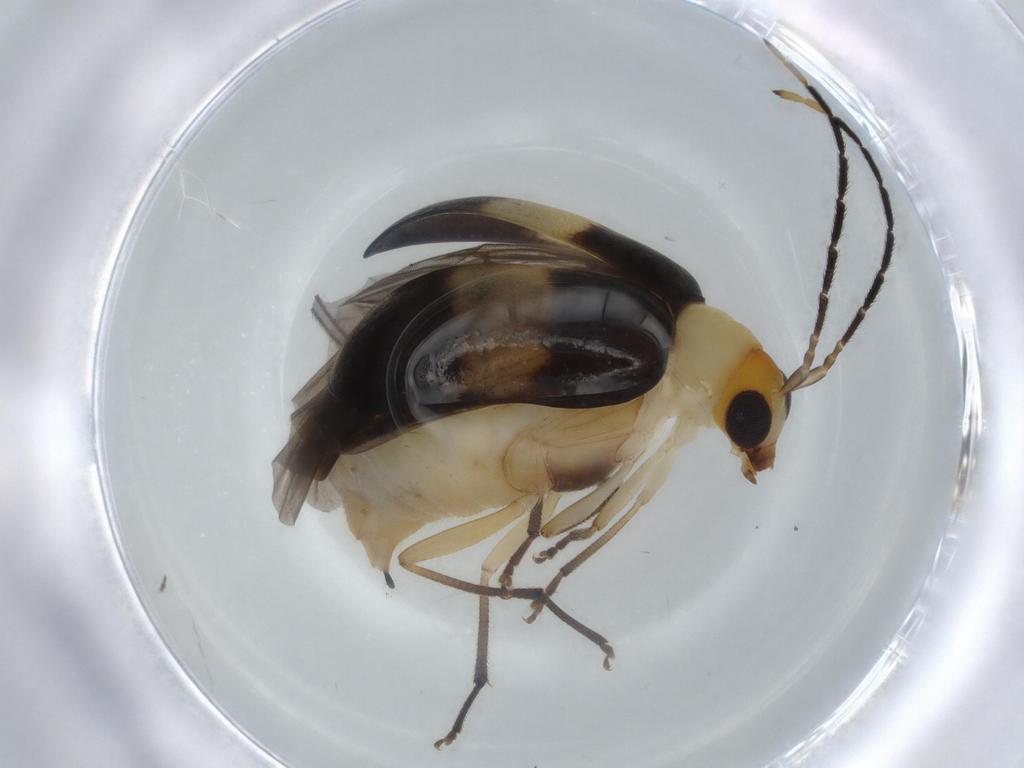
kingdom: Animalia
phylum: Arthropoda
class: Insecta
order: Coleoptera
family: Chrysomelidae
